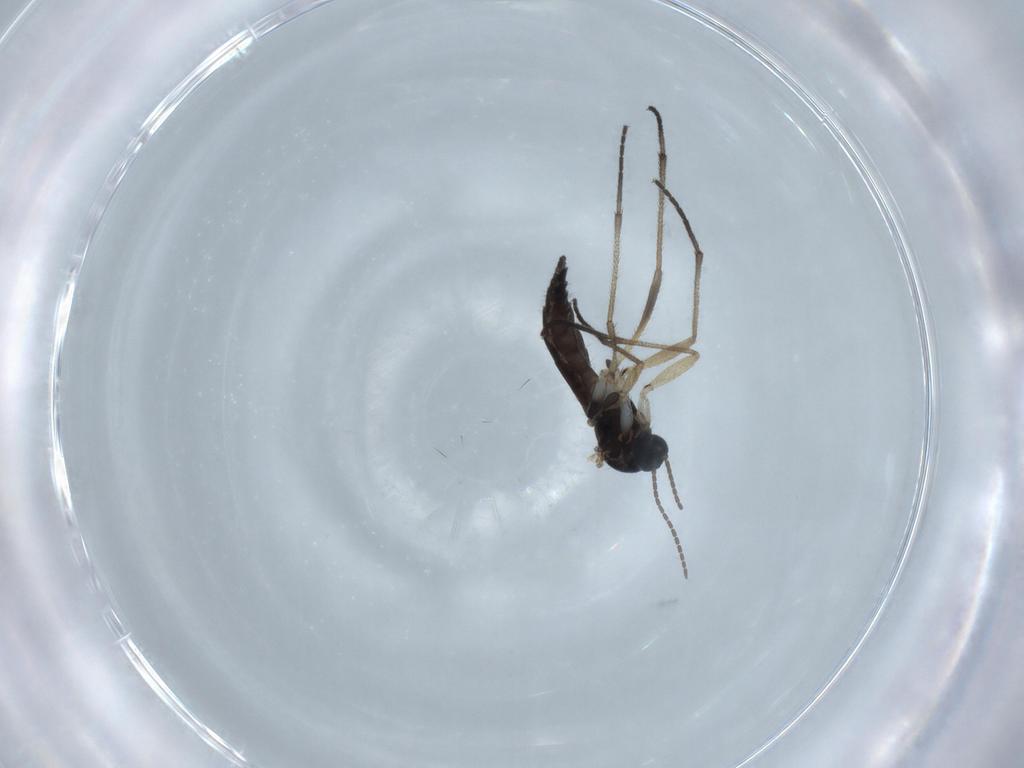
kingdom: Animalia
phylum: Arthropoda
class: Insecta
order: Diptera
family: Sciaridae
